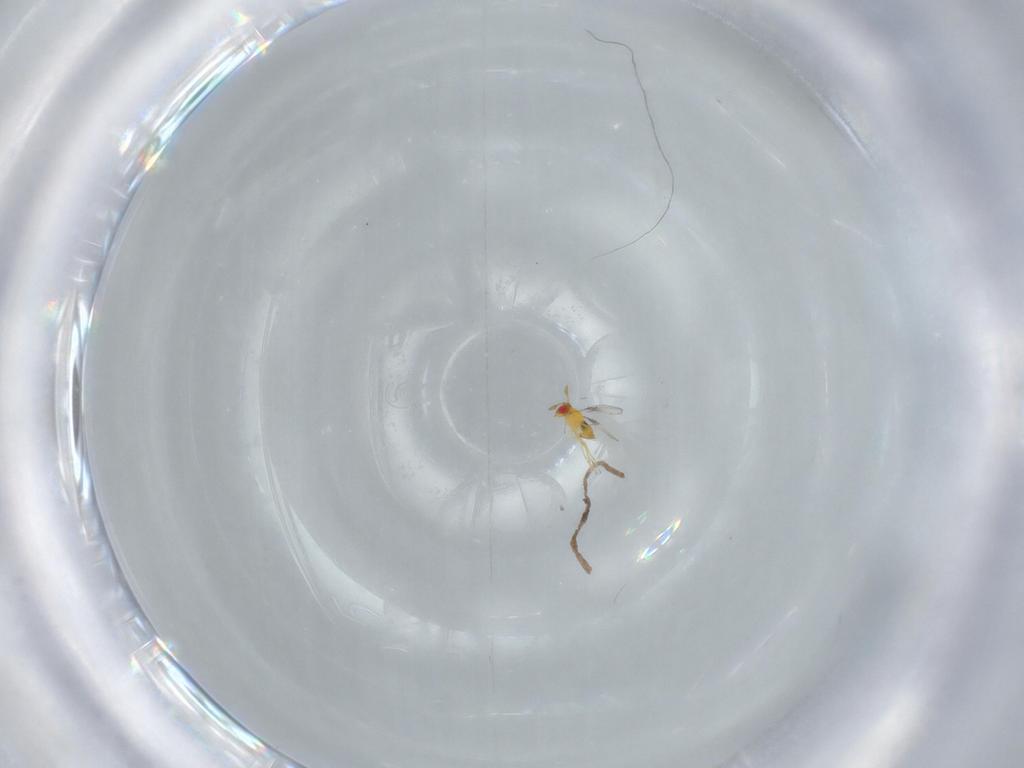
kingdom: Animalia
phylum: Arthropoda
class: Insecta
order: Hymenoptera
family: Trichogrammatidae
